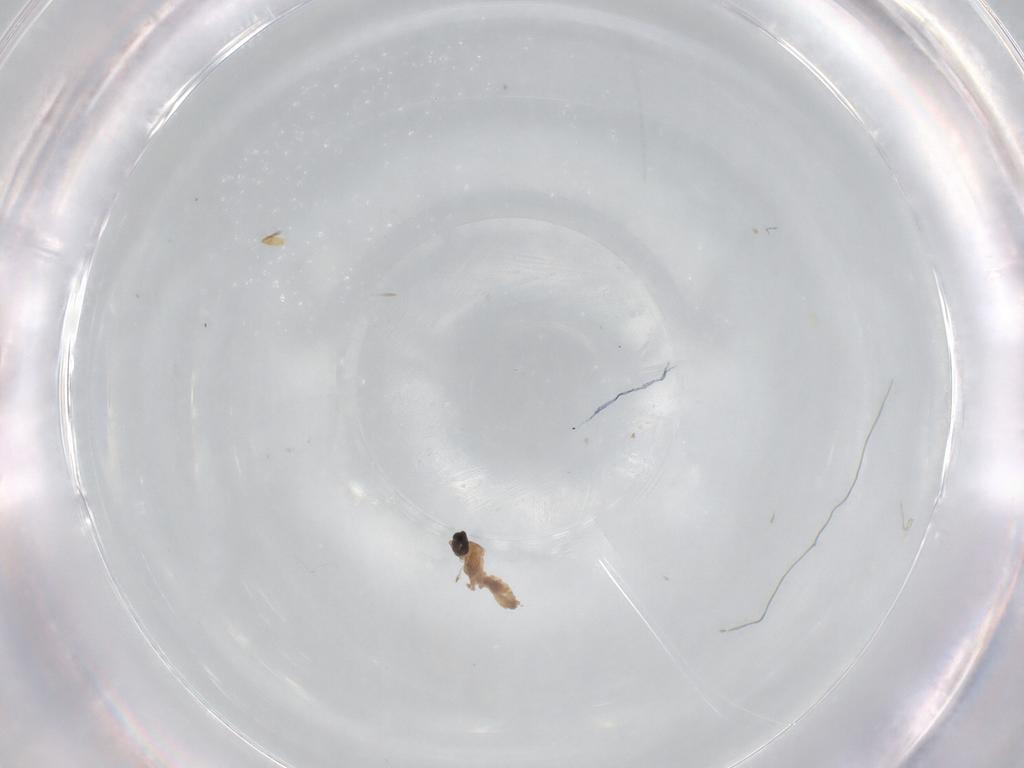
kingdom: Animalia
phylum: Arthropoda
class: Insecta
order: Diptera
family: Cecidomyiidae
